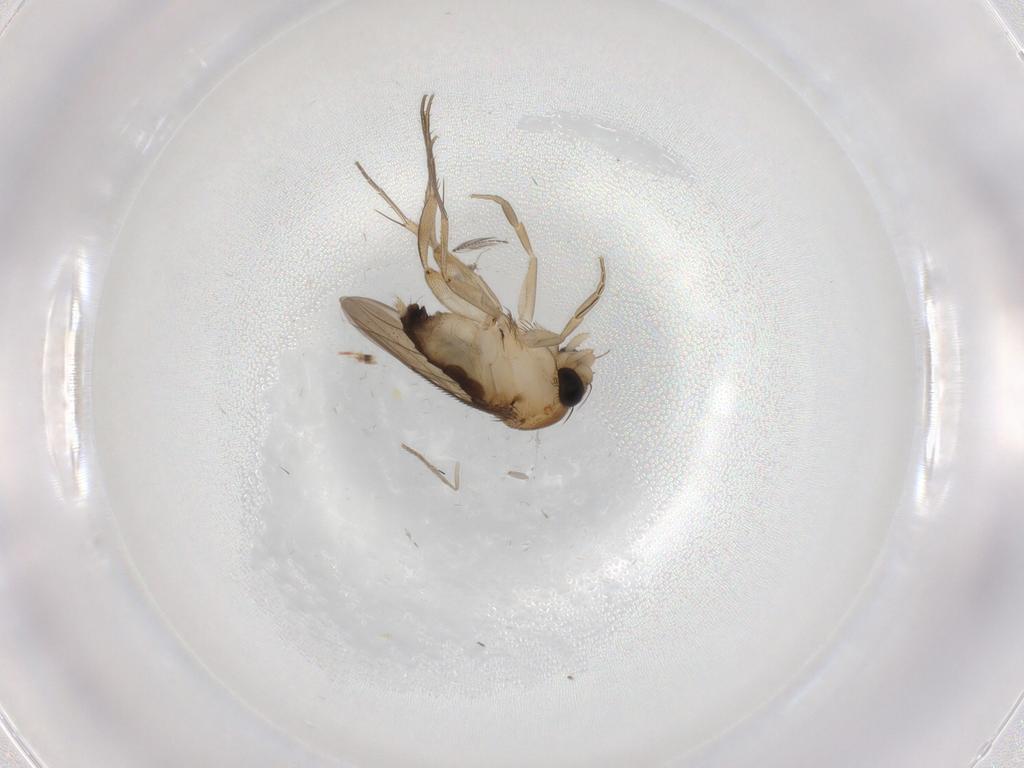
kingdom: Animalia
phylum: Arthropoda
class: Insecta
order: Diptera
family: Phoridae
